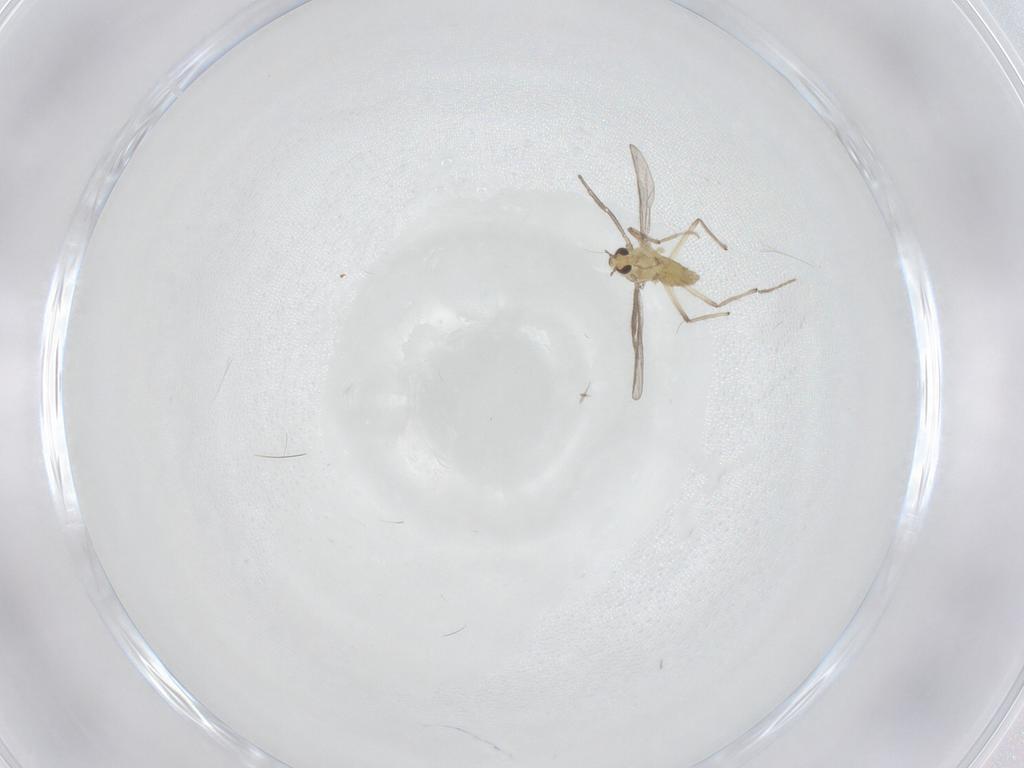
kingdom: Animalia
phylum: Arthropoda
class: Insecta
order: Diptera
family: Chironomidae
